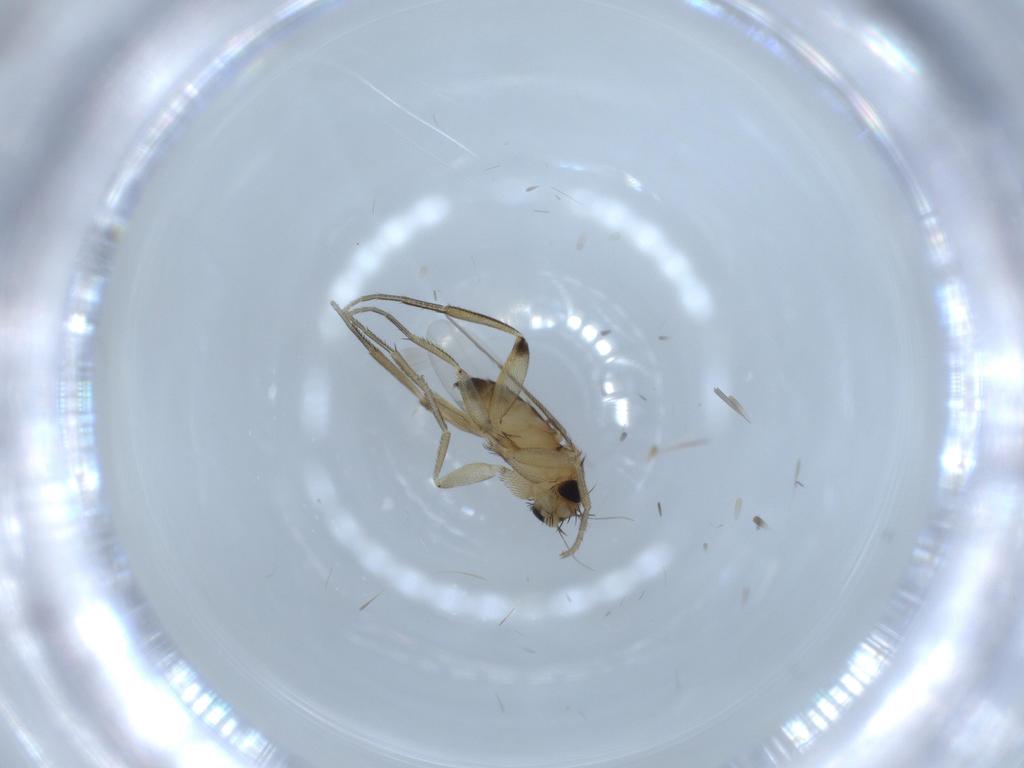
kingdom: Animalia
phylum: Arthropoda
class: Insecta
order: Diptera
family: Phoridae
